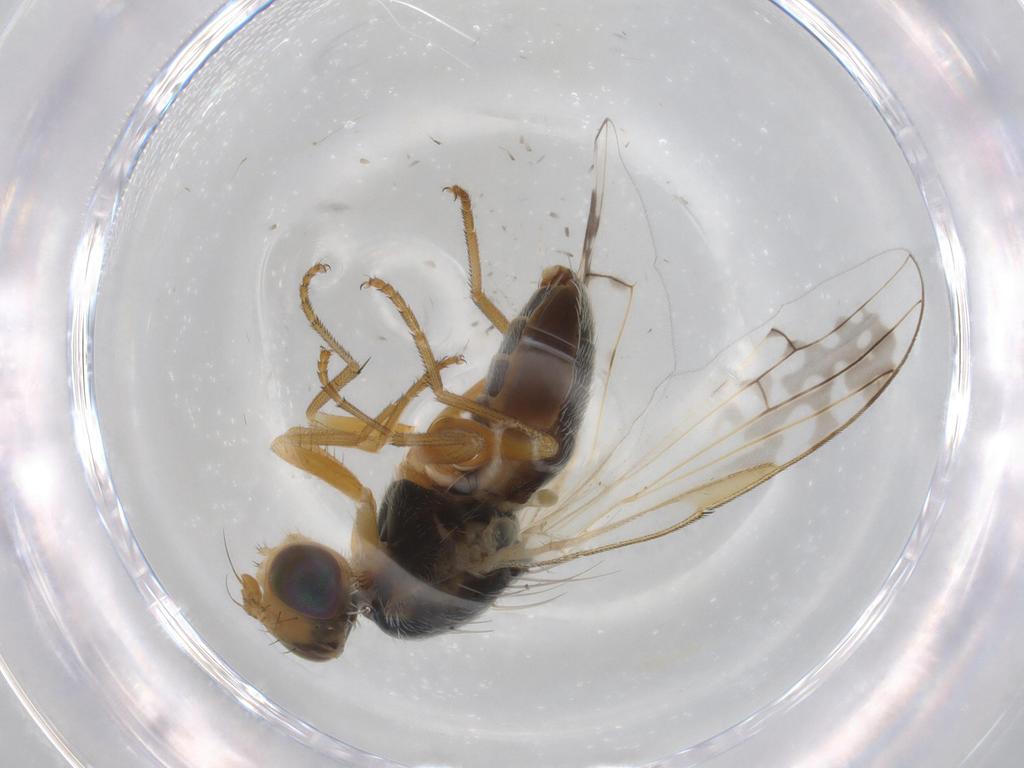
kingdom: Animalia
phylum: Arthropoda
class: Insecta
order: Diptera
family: Tephritidae
